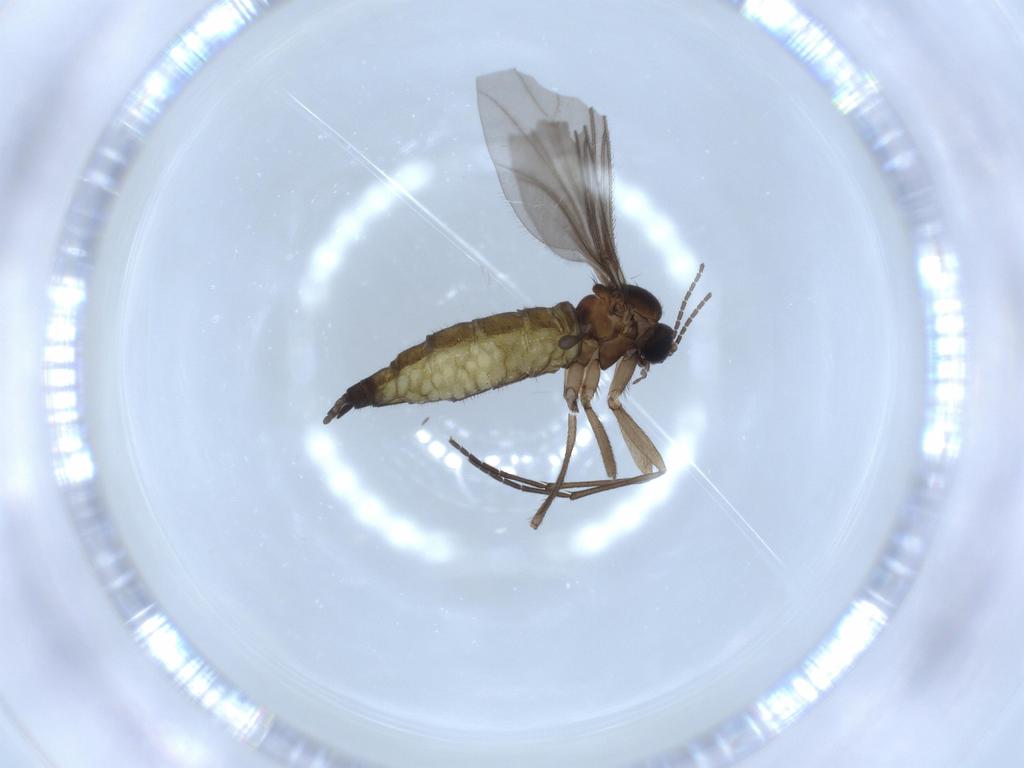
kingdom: Animalia
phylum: Arthropoda
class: Insecta
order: Diptera
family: Sciaridae
